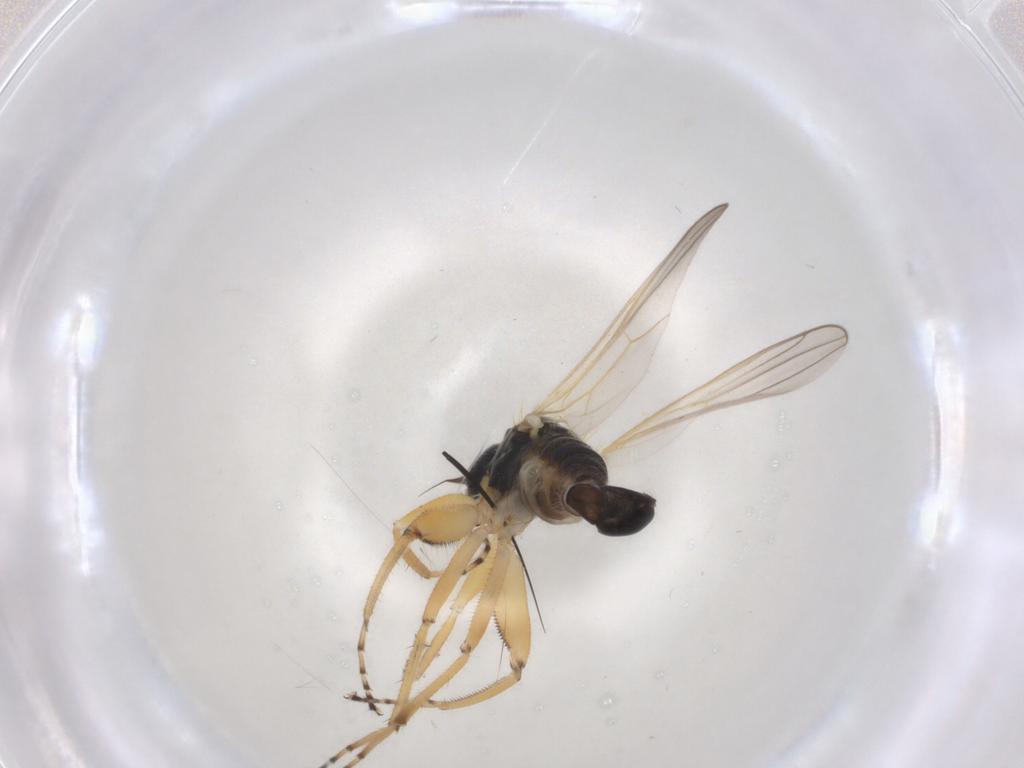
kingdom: Animalia
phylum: Arthropoda
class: Insecta
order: Diptera
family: Hybotidae
